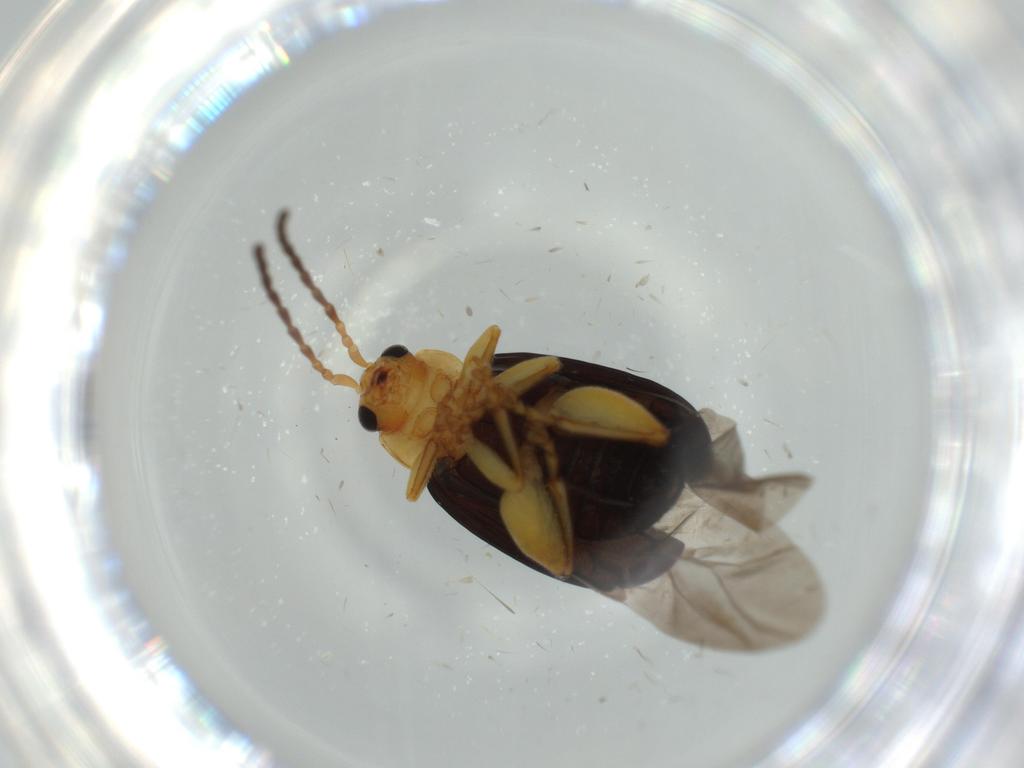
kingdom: Animalia
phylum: Arthropoda
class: Insecta
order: Coleoptera
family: Chrysomelidae
